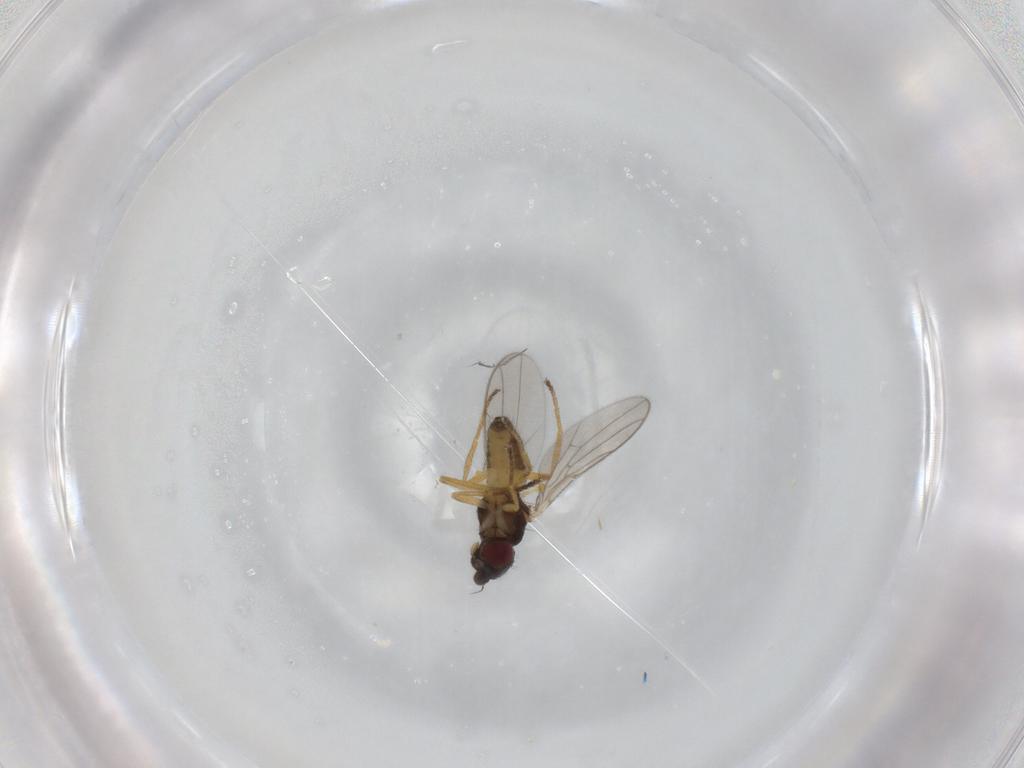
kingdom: Animalia
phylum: Arthropoda
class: Insecta
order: Diptera
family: Chloropidae
